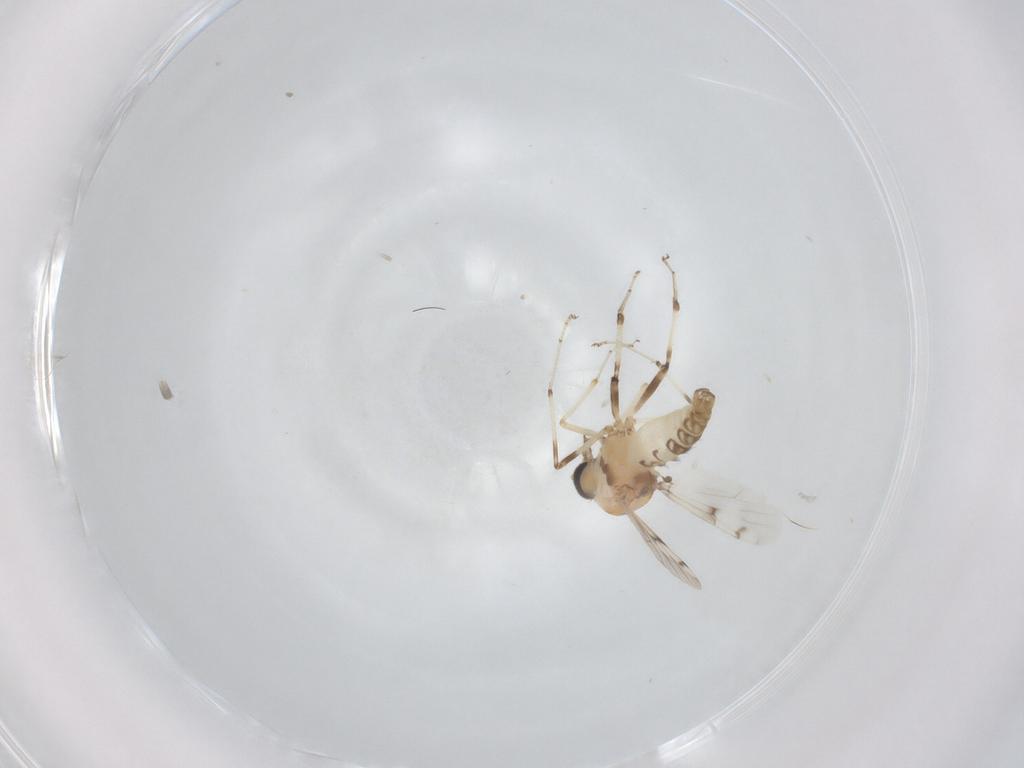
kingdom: Animalia
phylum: Arthropoda
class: Insecta
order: Diptera
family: Ceratopogonidae
